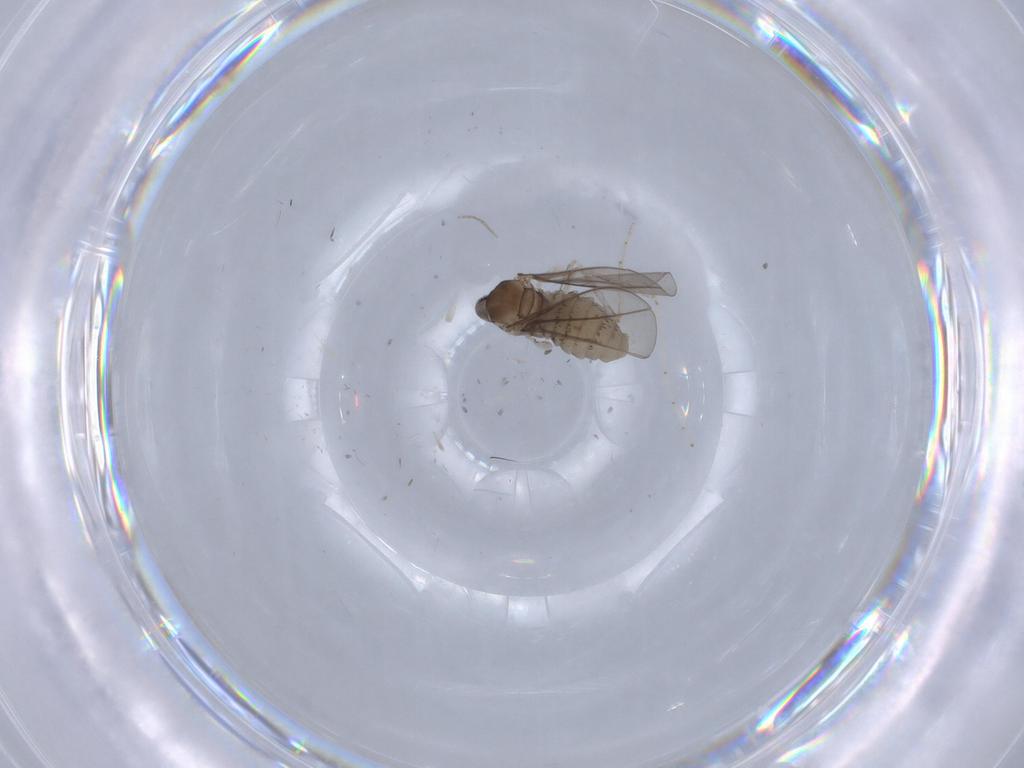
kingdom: Animalia
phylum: Arthropoda
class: Insecta
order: Diptera
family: Chironomidae
